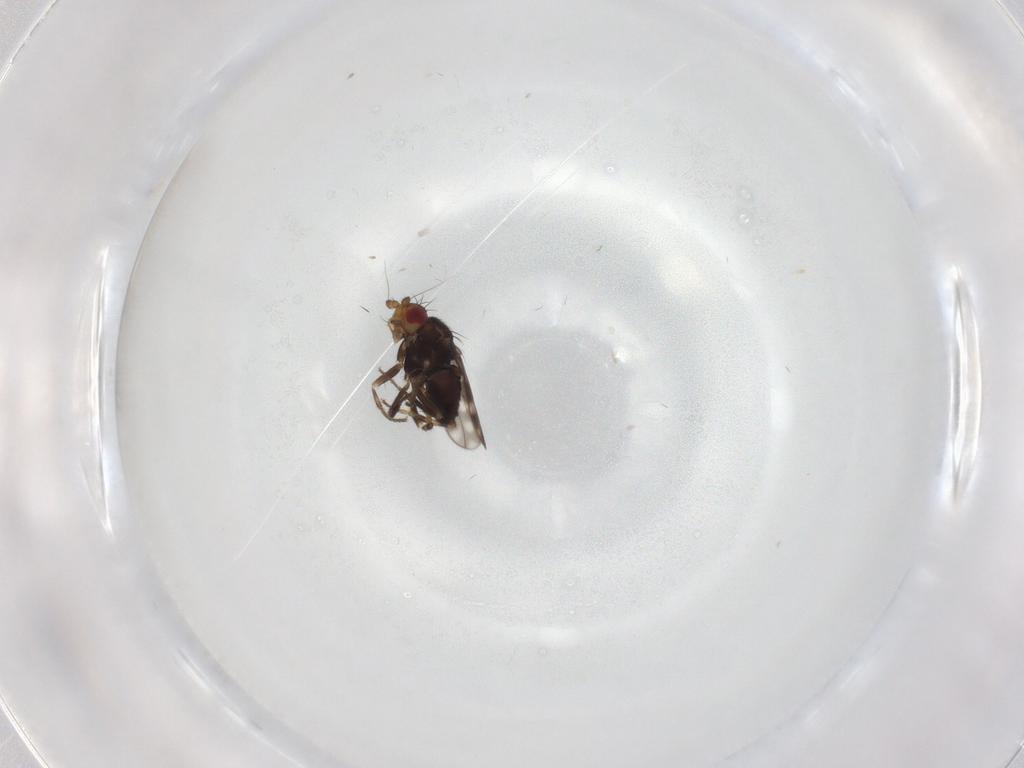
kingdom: Animalia
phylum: Arthropoda
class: Insecta
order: Diptera
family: Sphaeroceridae
